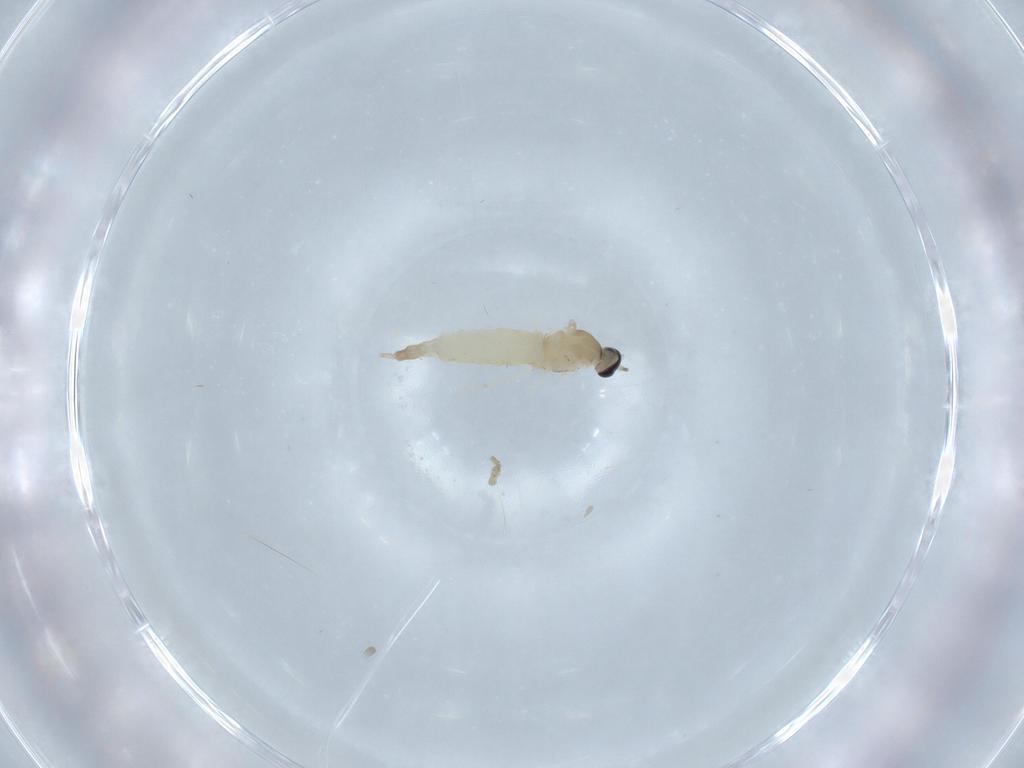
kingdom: Animalia
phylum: Arthropoda
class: Insecta
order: Diptera
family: Cecidomyiidae
